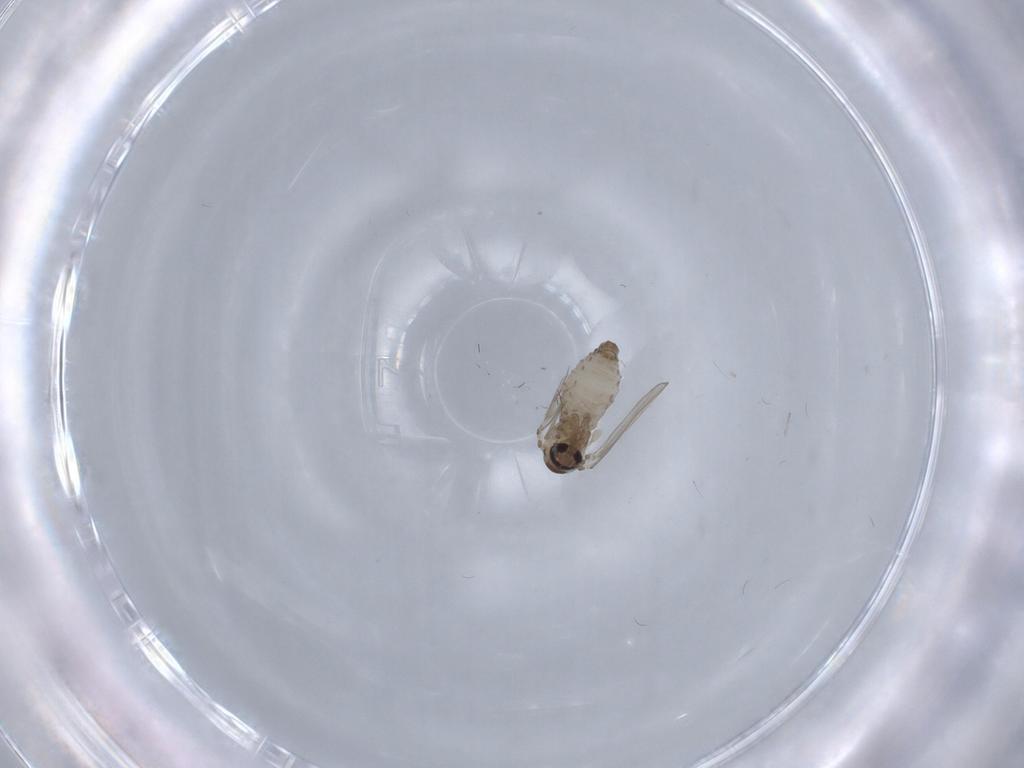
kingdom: Animalia
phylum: Arthropoda
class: Insecta
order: Diptera
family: Psychodidae
